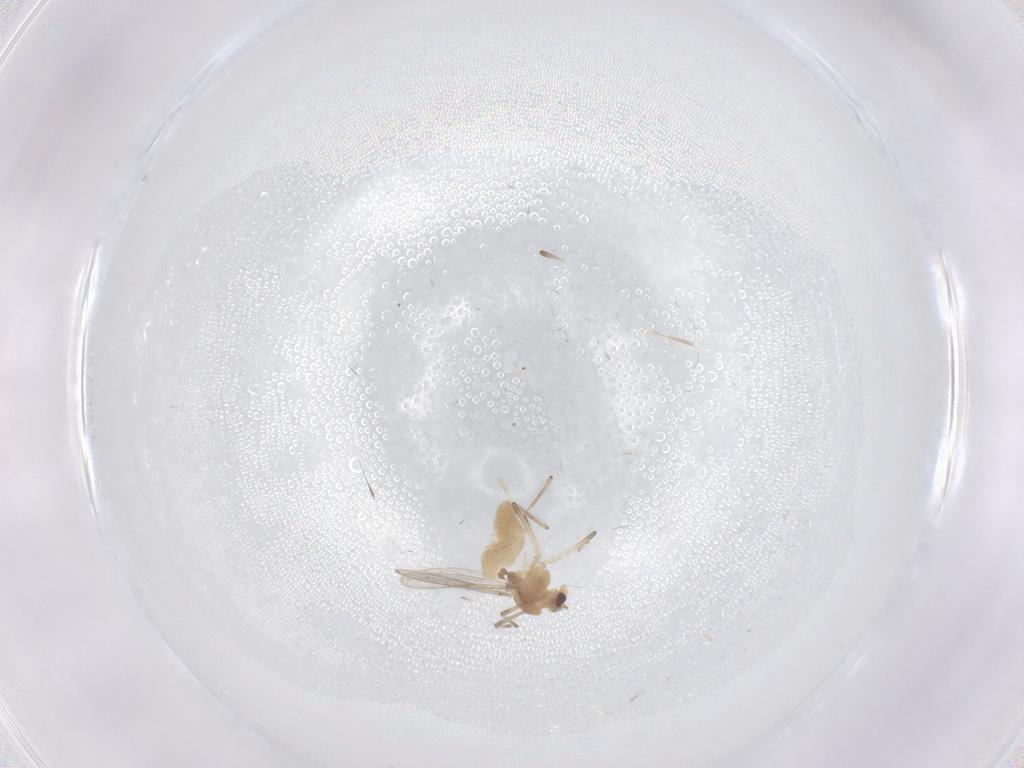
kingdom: Animalia
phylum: Arthropoda
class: Insecta
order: Diptera
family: Chironomidae
